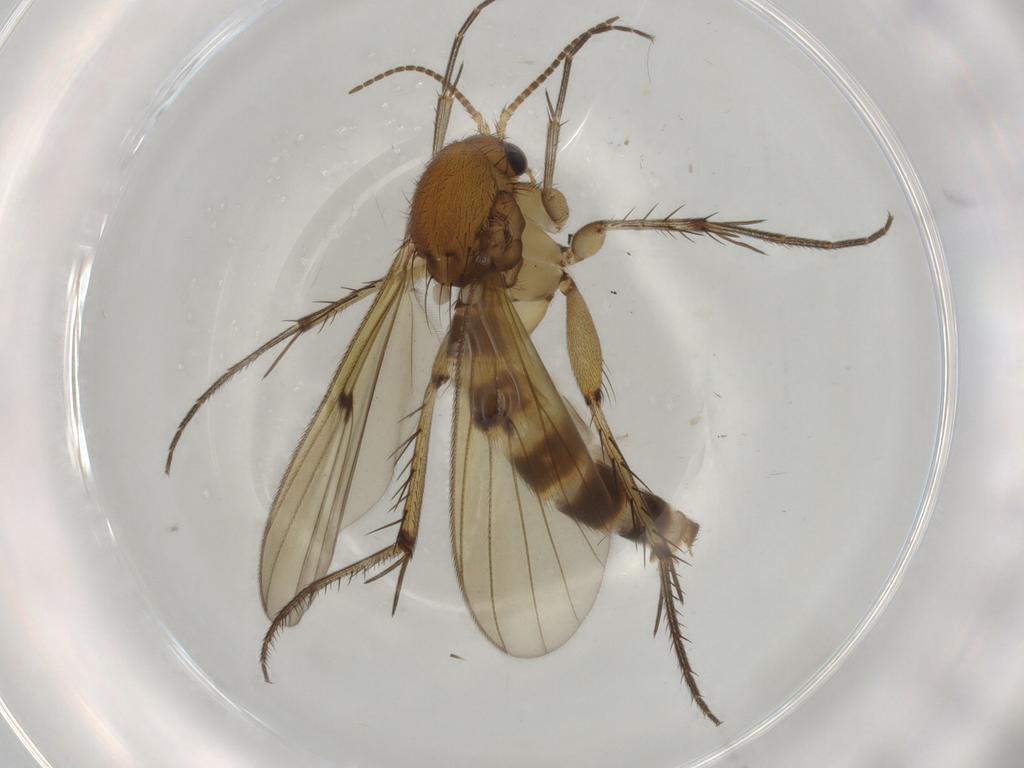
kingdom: Animalia
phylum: Arthropoda
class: Insecta
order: Diptera
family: Mycetophilidae
